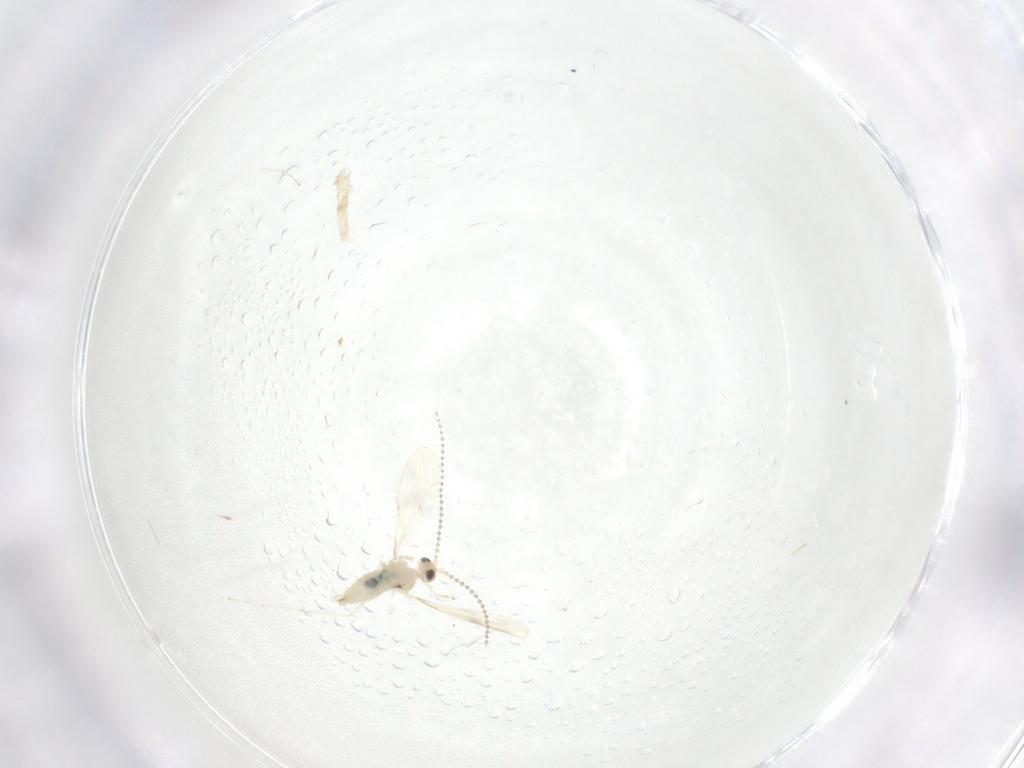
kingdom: Animalia
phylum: Arthropoda
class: Insecta
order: Diptera
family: Cecidomyiidae
